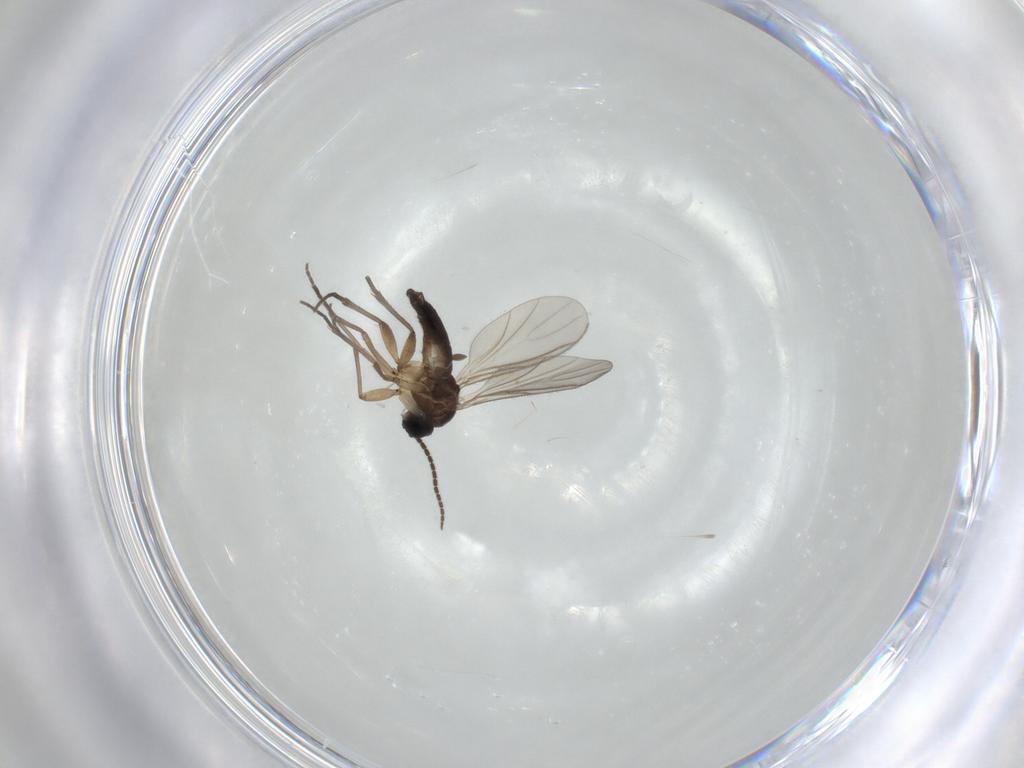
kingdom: Animalia
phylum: Arthropoda
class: Insecta
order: Diptera
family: Sciaridae
